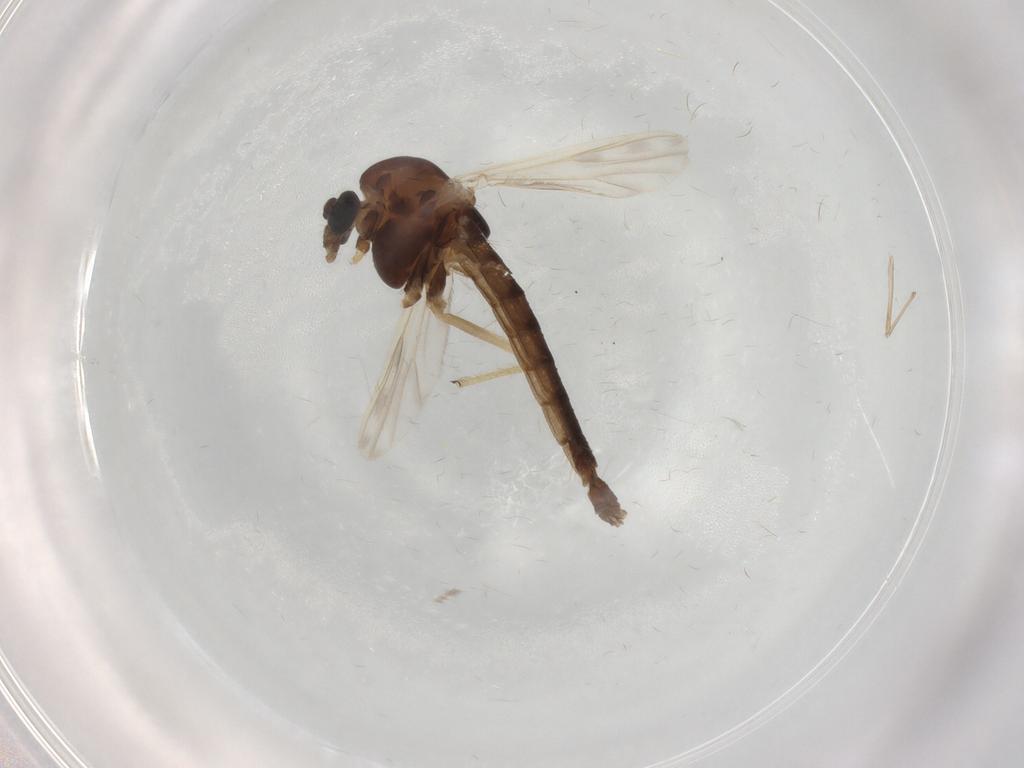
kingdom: Animalia
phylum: Arthropoda
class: Insecta
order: Diptera
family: Chironomidae
